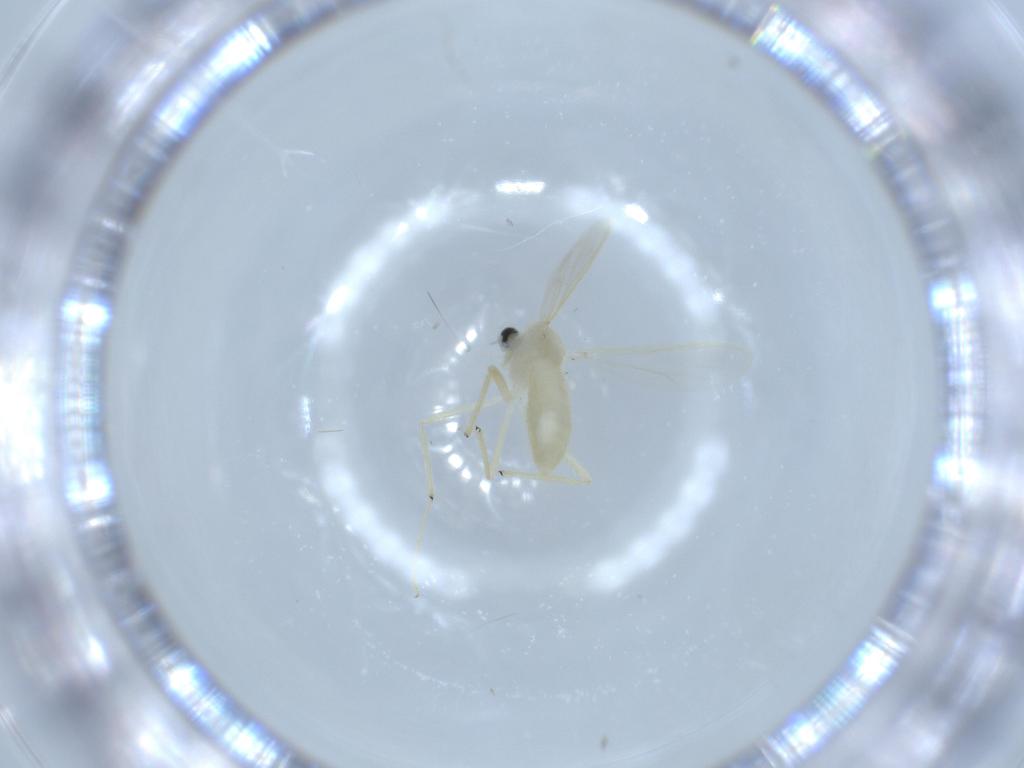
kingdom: Animalia
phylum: Arthropoda
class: Insecta
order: Diptera
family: Chironomidae
